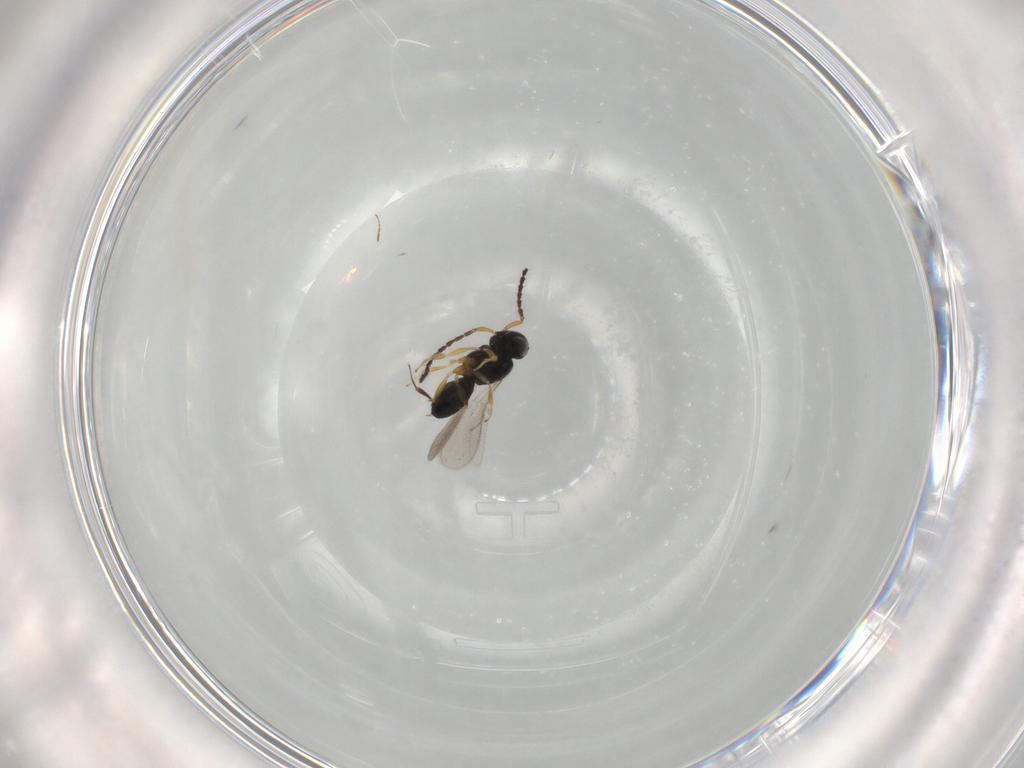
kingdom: Animalia
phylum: Arthropoda
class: Insecta
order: Hymenoptera
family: Scelionidae
